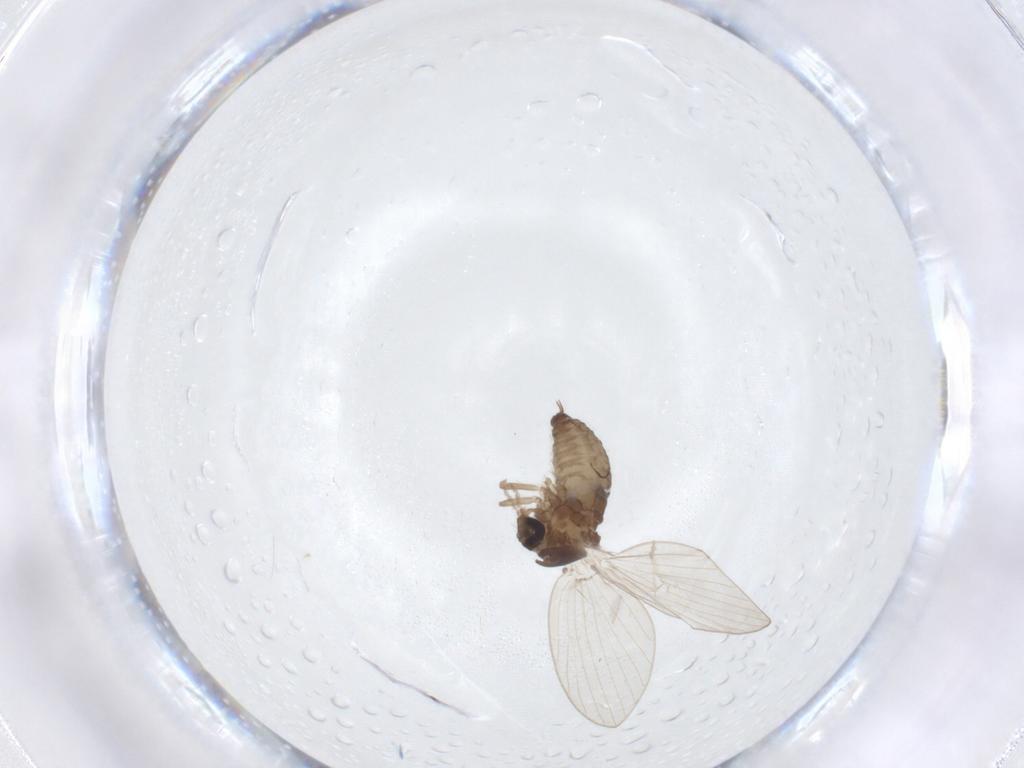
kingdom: Animalia
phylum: Arthropoda
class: Insecta
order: Diptera
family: Psychodidae
